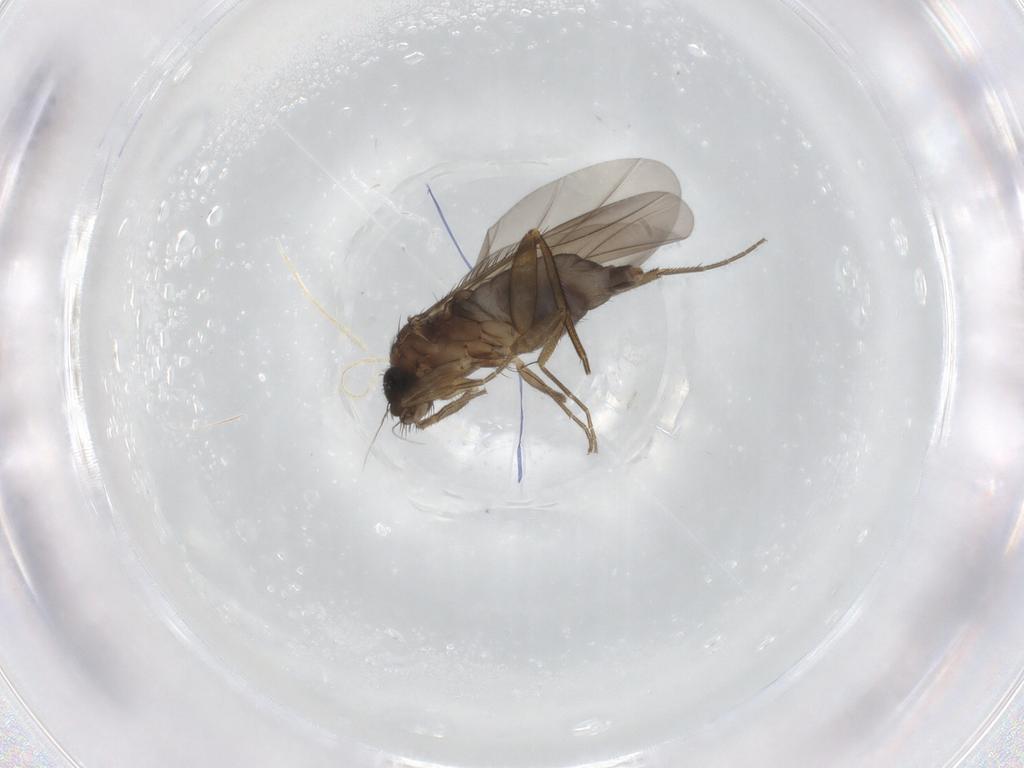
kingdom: Animalia
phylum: Arthropoda
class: Insecta
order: Diptera
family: Phoridae
